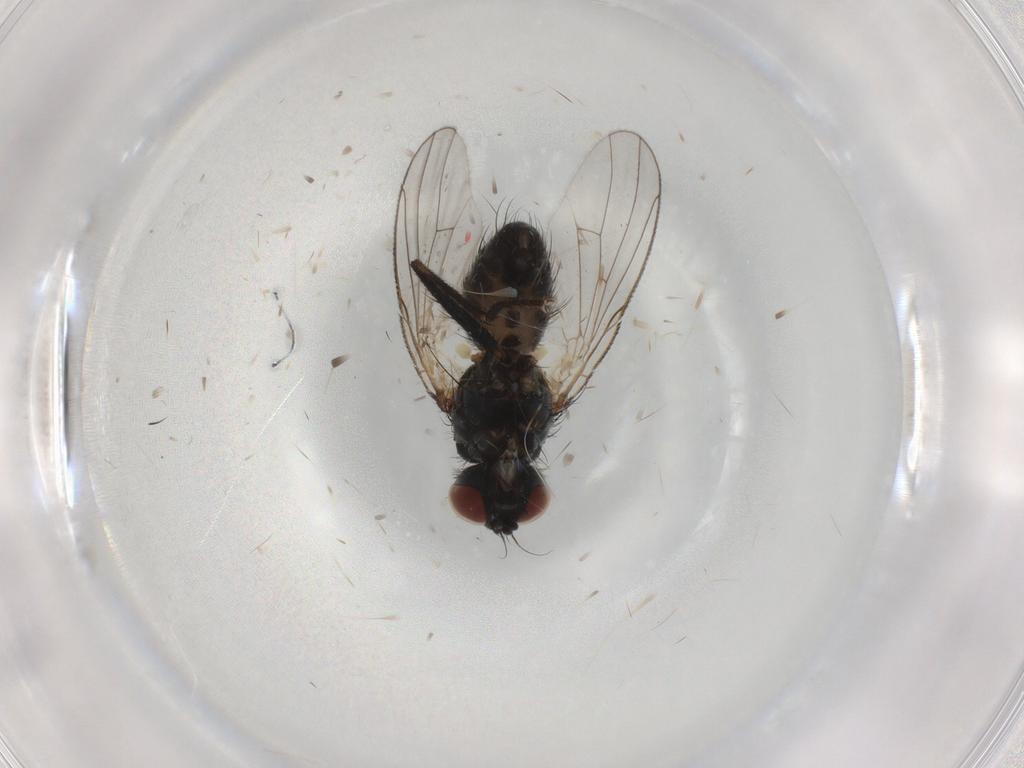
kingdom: Animalia
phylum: Arthropoda
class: Insecta
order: Diptera
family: Muscidae
